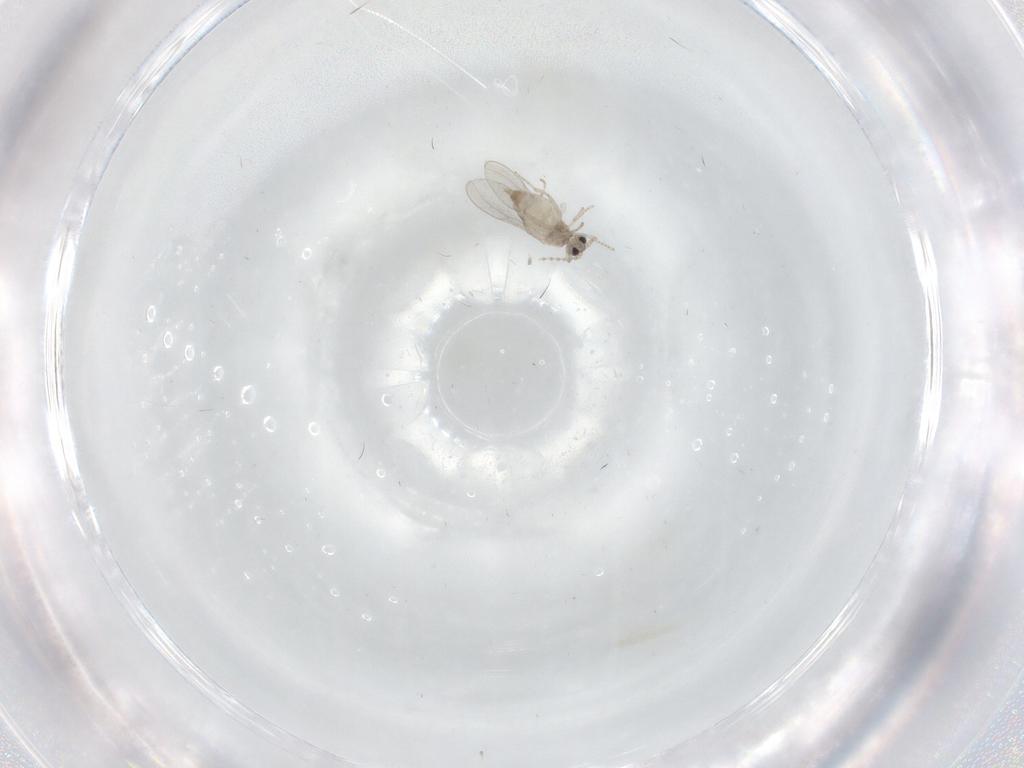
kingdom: Animalia
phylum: Arthropoda
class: Insecta
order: Diptera
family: Cecidomyiidae
